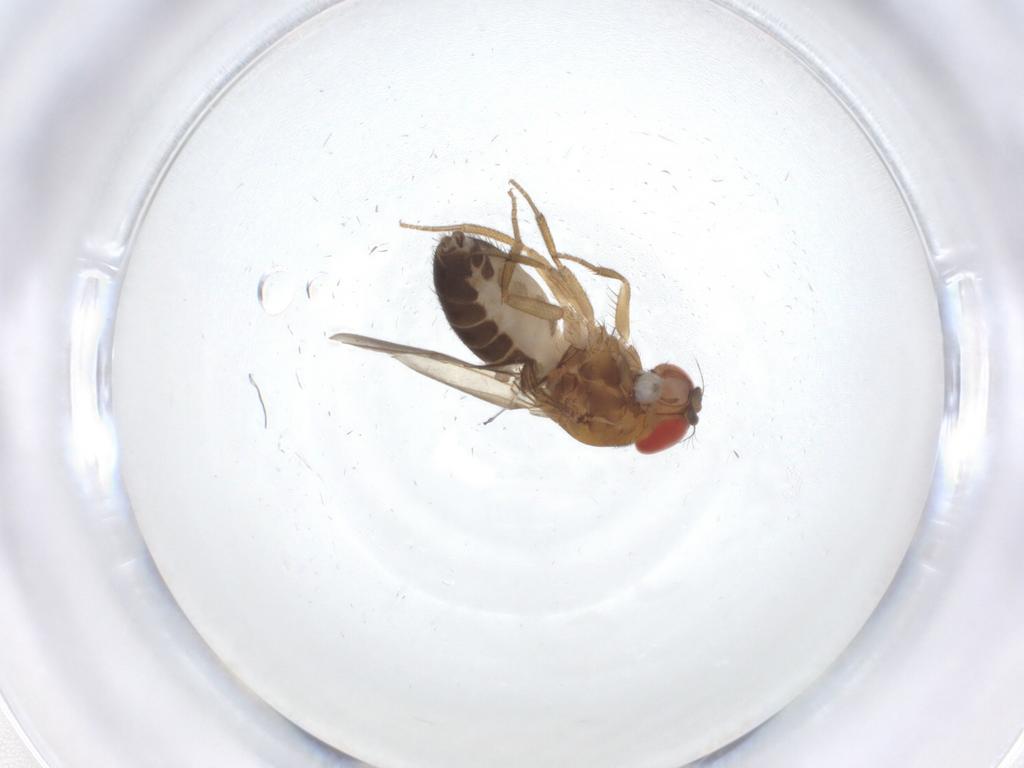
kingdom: Animalia
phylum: Arthropoda
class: Insecta
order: Diptera
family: Drosophilidae
